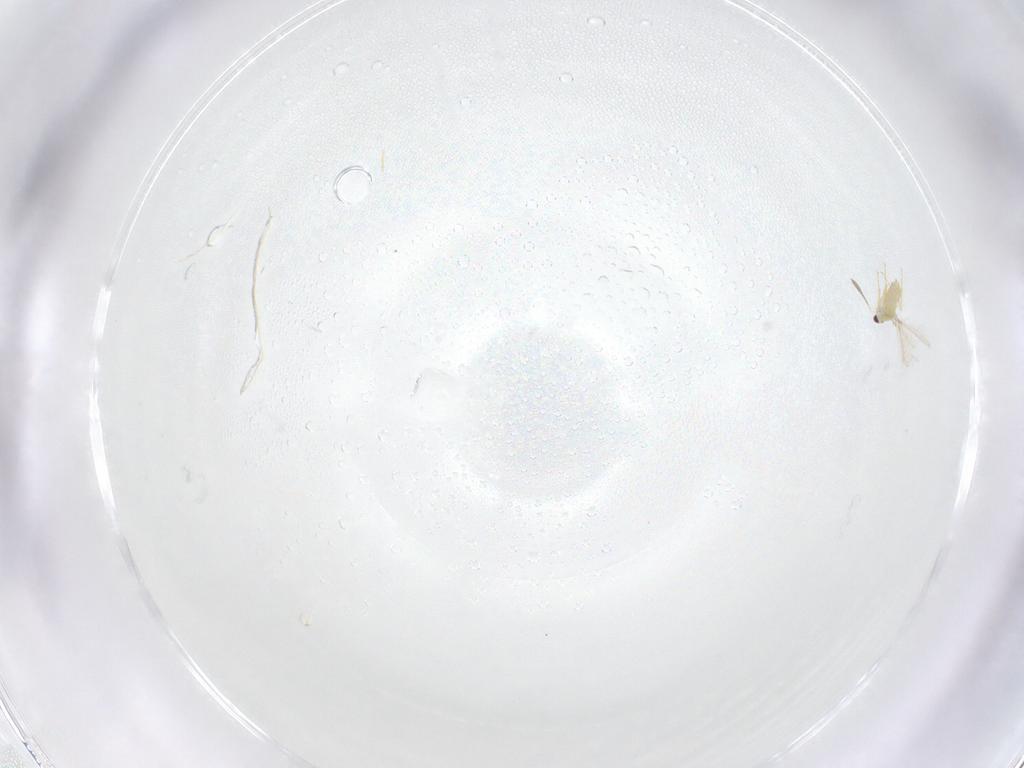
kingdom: Animalia
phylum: Arthropoda
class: Insecta
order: Hymenoptera
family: Mymaridae
